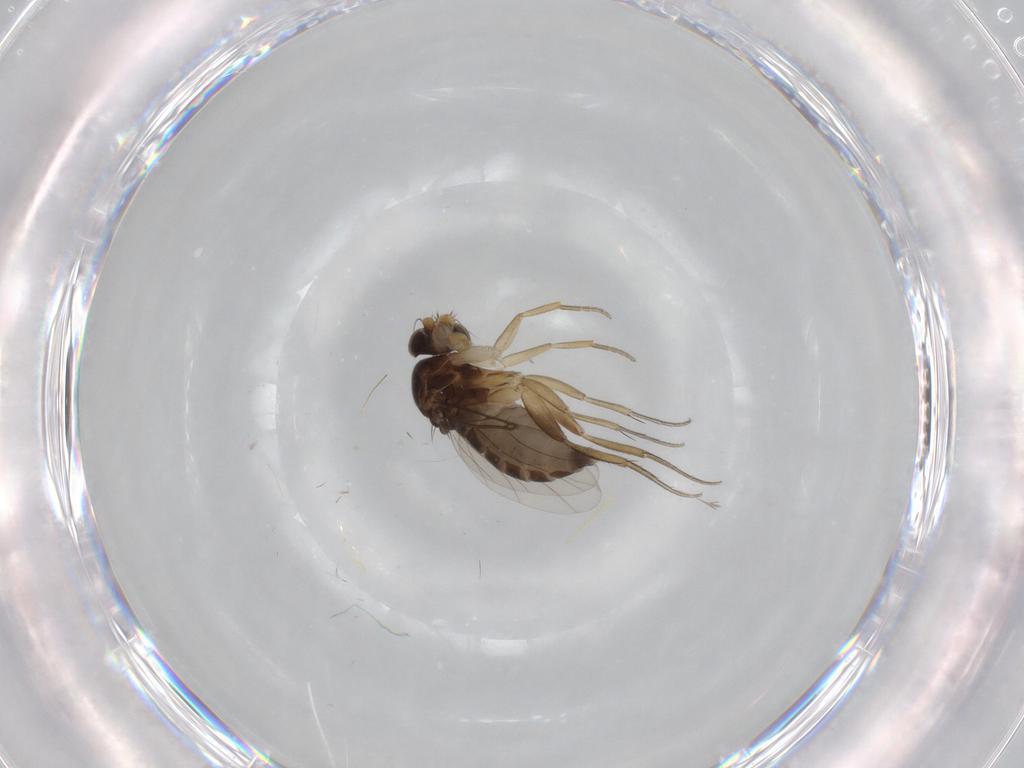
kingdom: Animalia
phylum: Arthropoda
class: Insecta
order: Diptera
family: Phoridae
